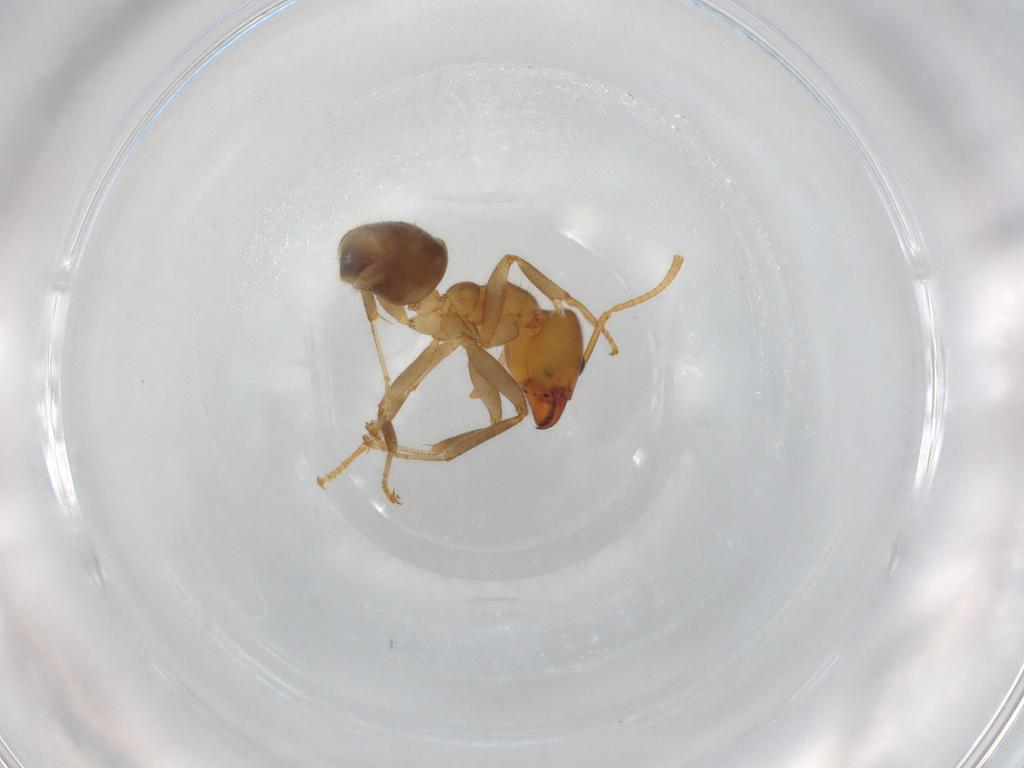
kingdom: Animalia
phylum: Arthropoda
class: Insecta
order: Hymenoptera
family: Formicidae
